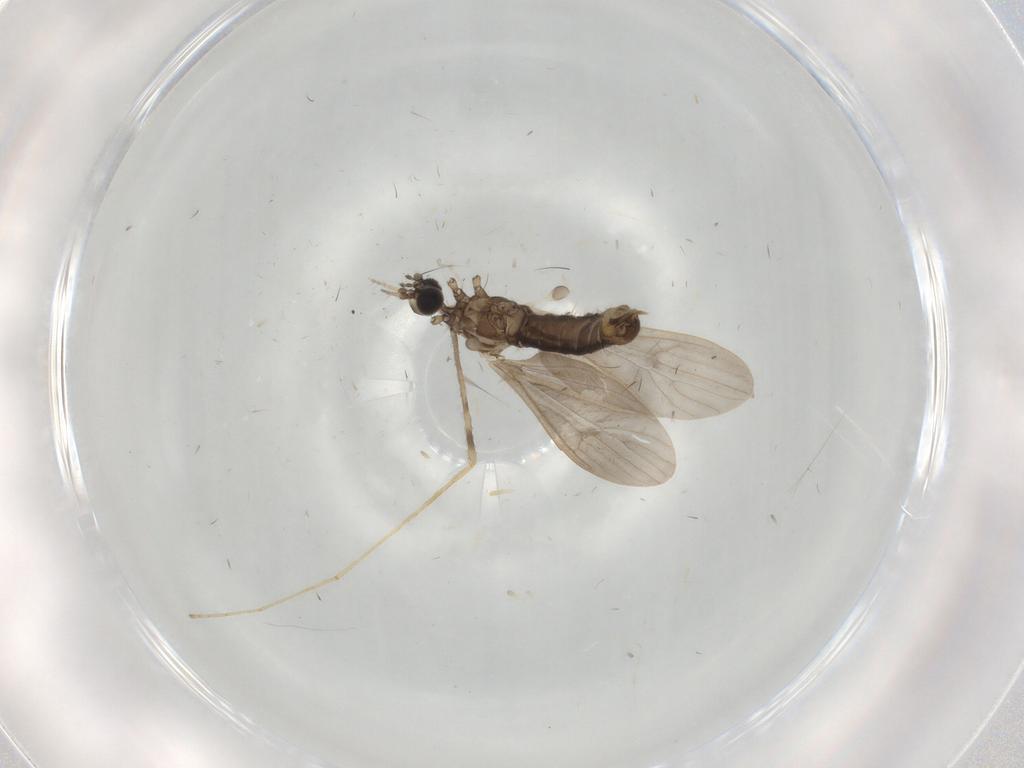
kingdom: Animalia
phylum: Arthropoda
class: Insecta
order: Diptera
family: Limoniidae
